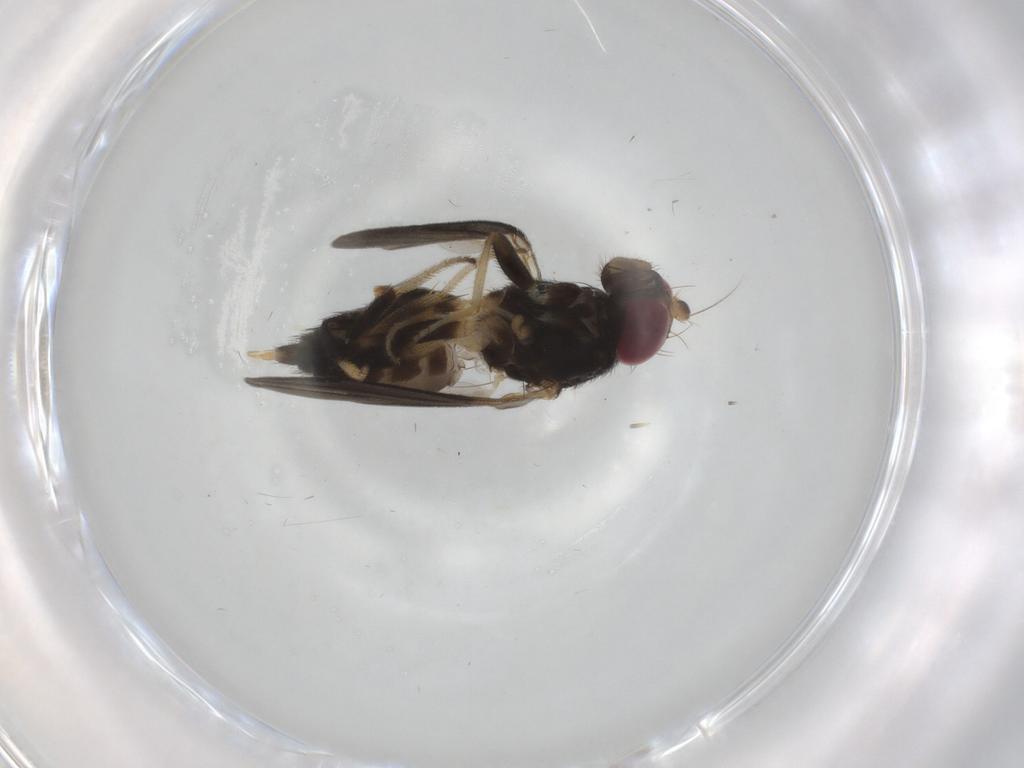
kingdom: Animalia
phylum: Arthropoda
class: Insecta
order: Diptera
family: Clusiidae
